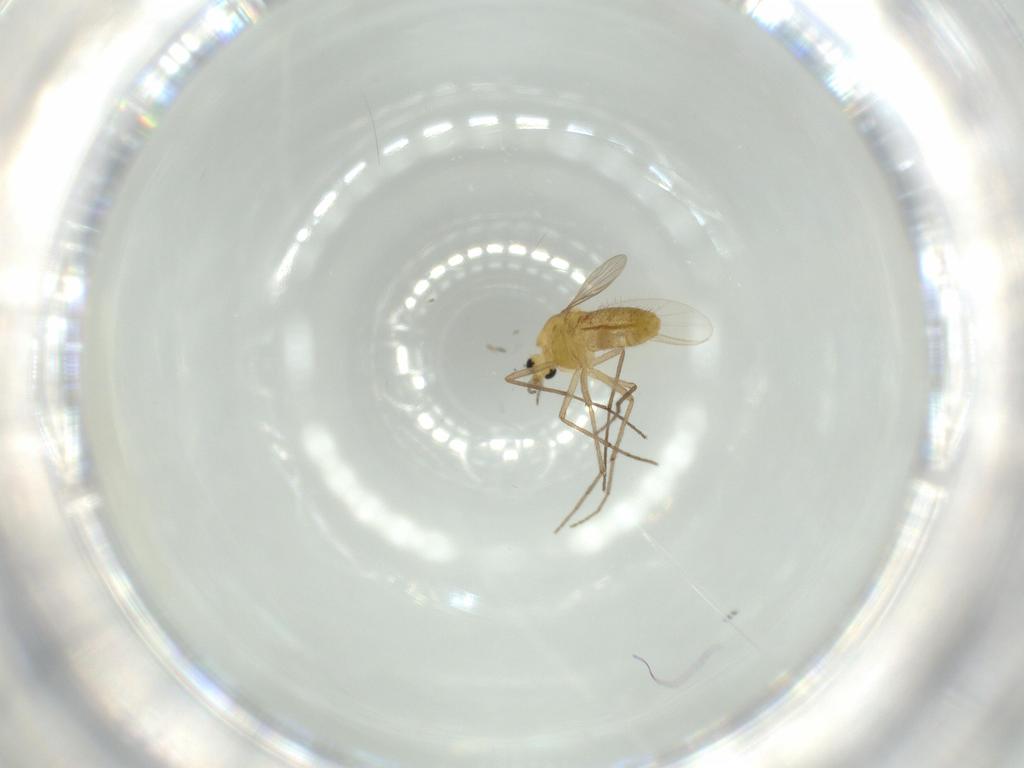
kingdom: Animalia
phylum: Arthropoda
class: Insecta
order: Diptera
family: Chironomidae
